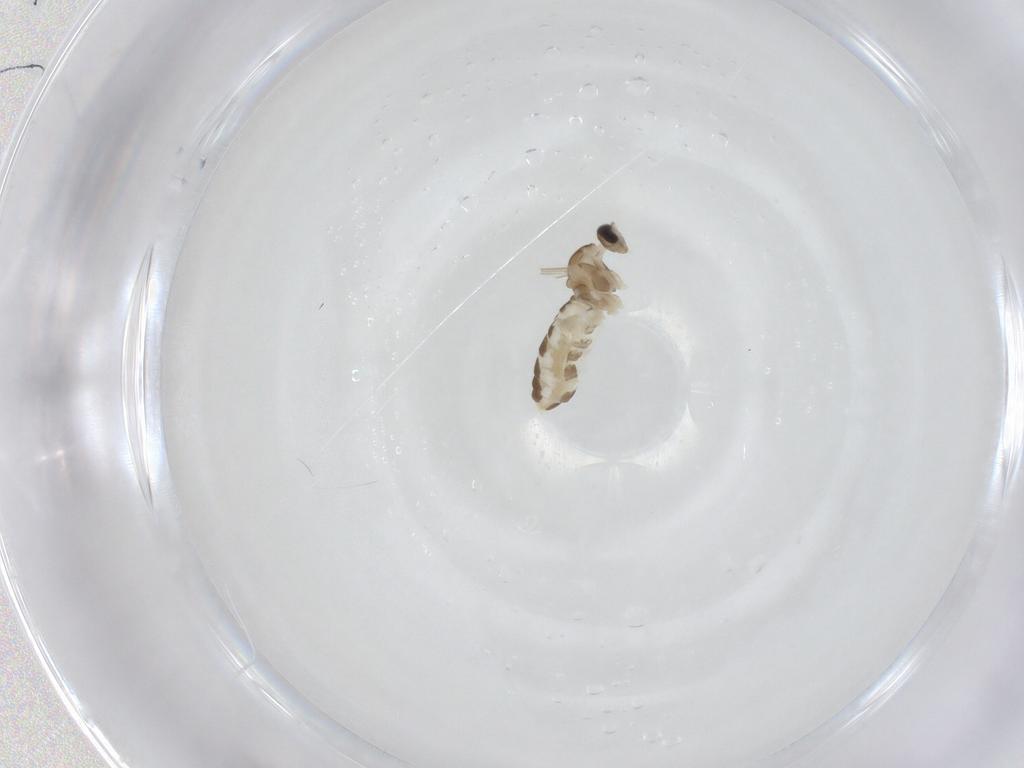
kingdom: Animalia
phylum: Arthropoda
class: Insecta
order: Diptera
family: Cecidomyiidae
